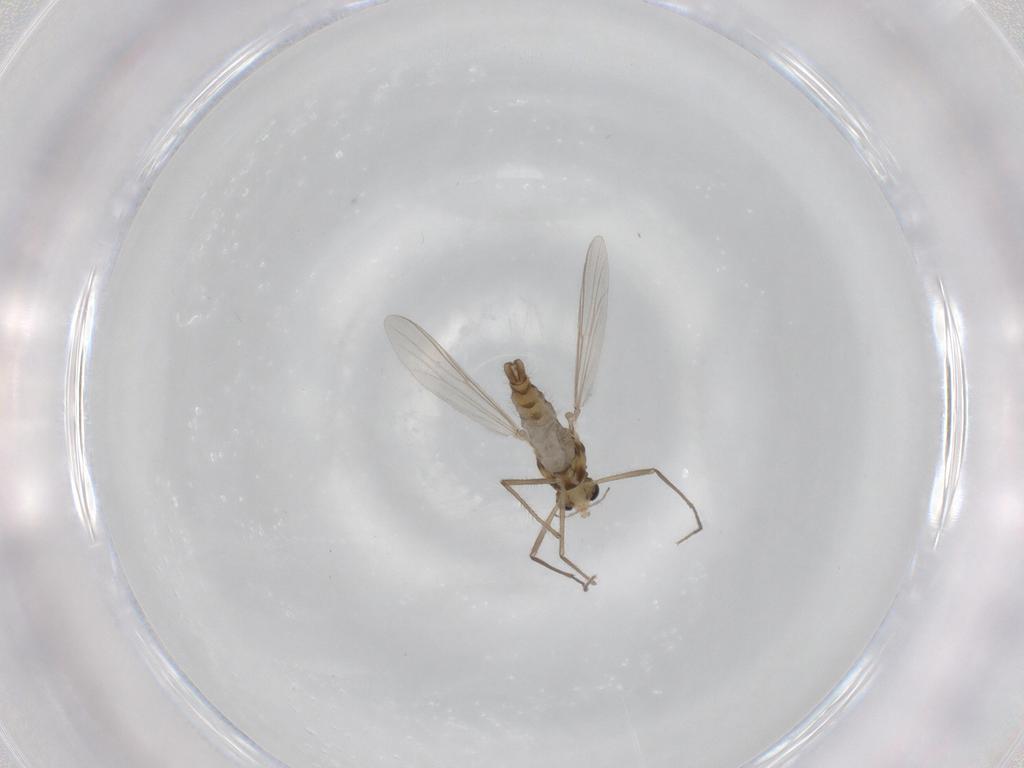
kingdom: Animalia
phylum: Arthropoda
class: Insecta
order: Diptera
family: Chironomidae
